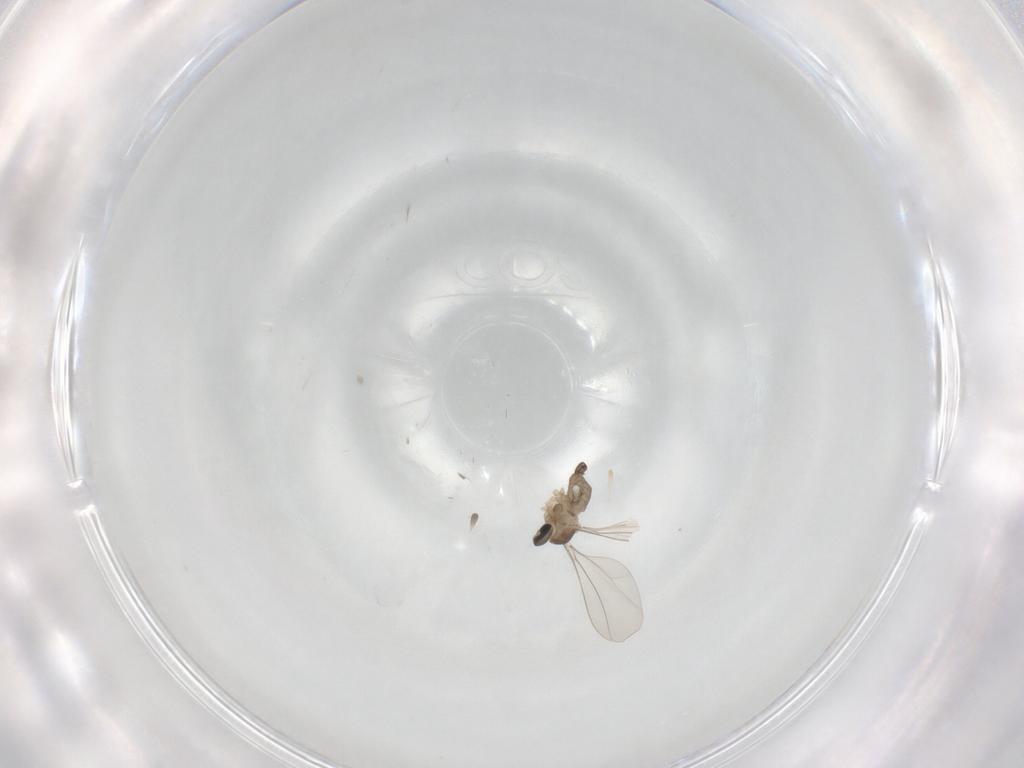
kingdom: Animalia
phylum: Arthropoda
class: Insecta
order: Diptera
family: Cecidomyiidae
